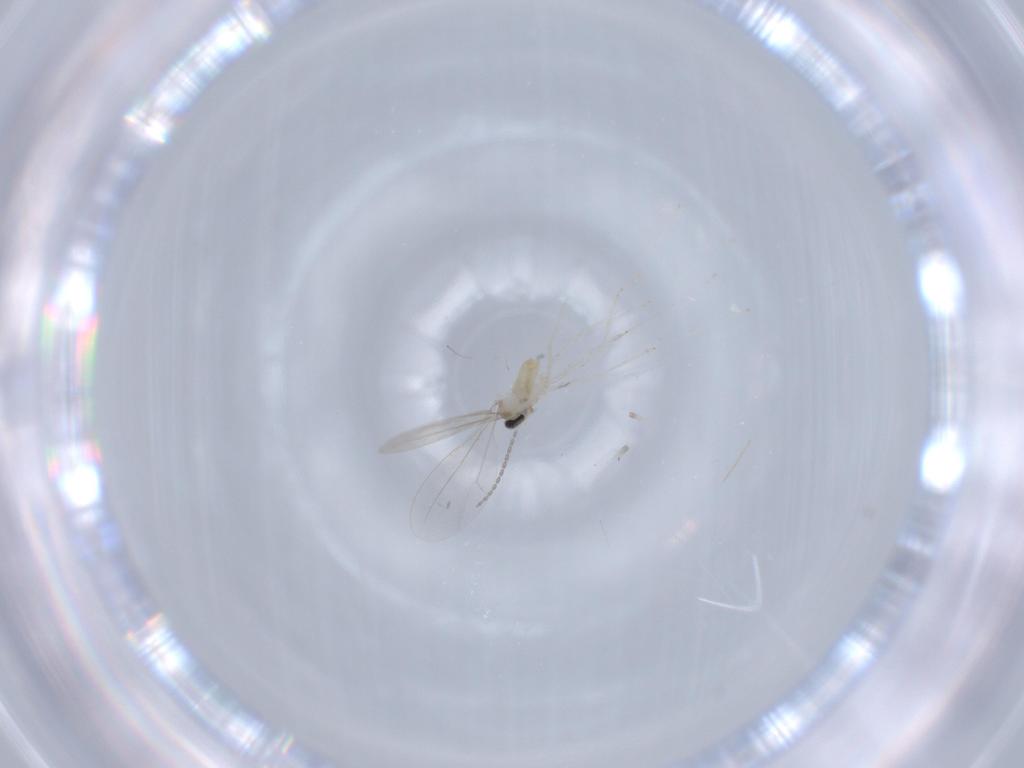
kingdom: Animalia
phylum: Arthropoda
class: Insecta
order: Diptera
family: Cecidomyiidae
